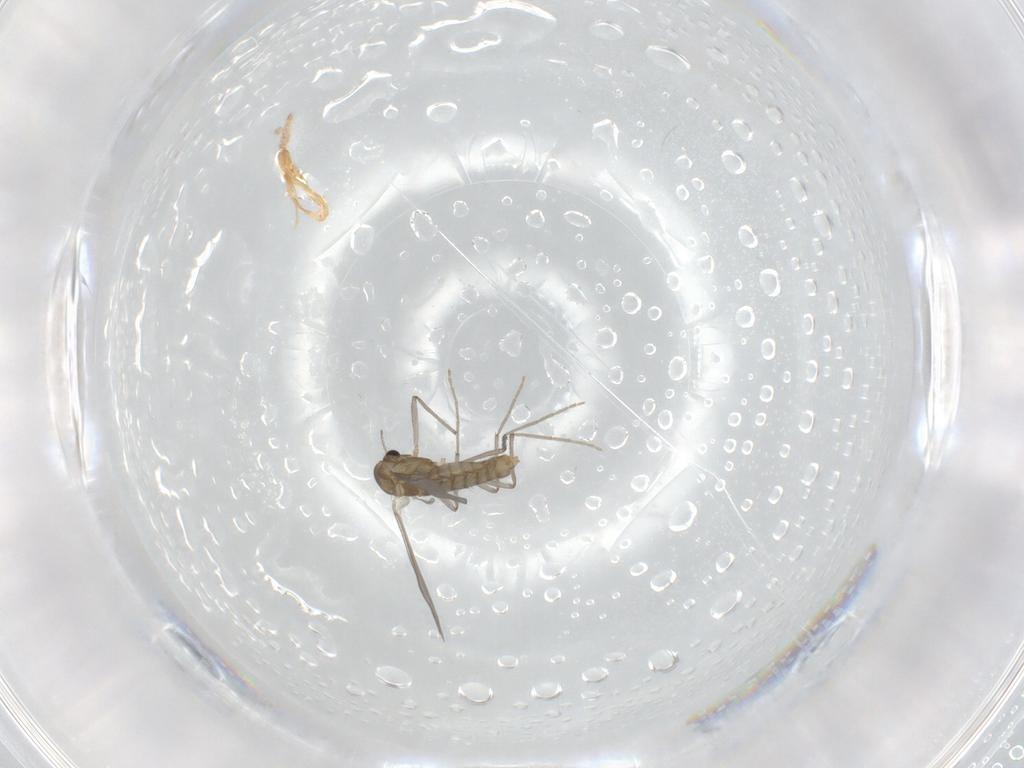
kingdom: Animalia
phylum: Arthropoda
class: Insecta
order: Diptera
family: Chironomidae
